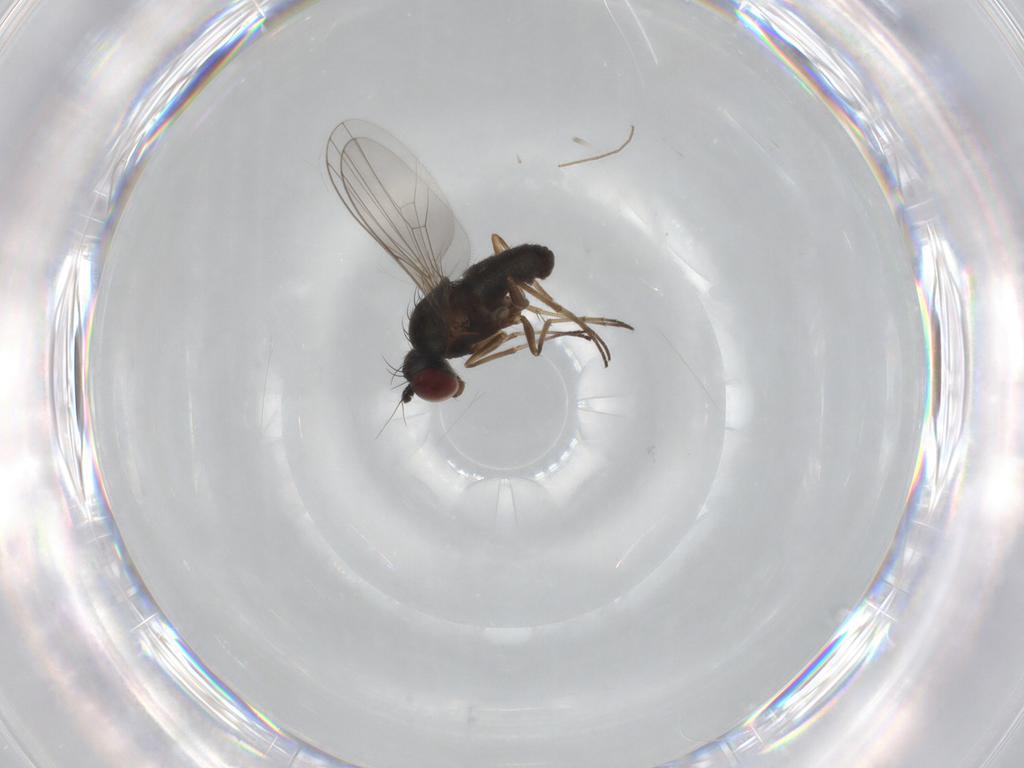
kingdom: Animalia
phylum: Arthropoda
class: Insecta
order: Diptera
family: Dolichopodidae
